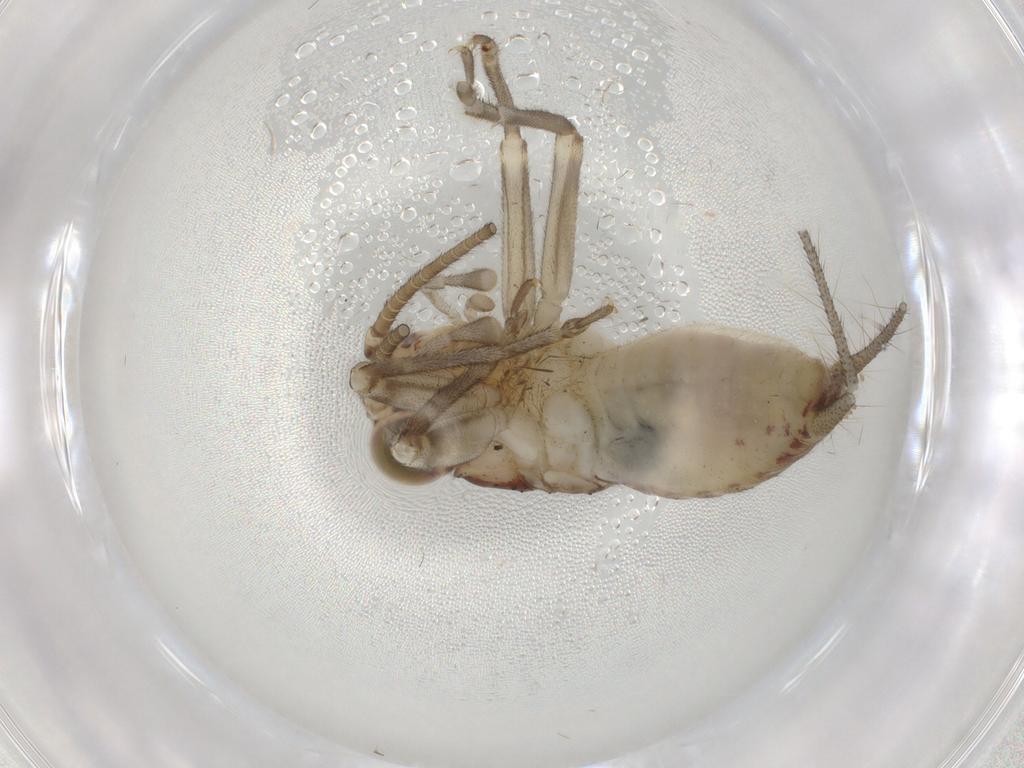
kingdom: Animalia
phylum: Arthropoda
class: Insecta
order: Orthoptera
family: Trigonidiidae
